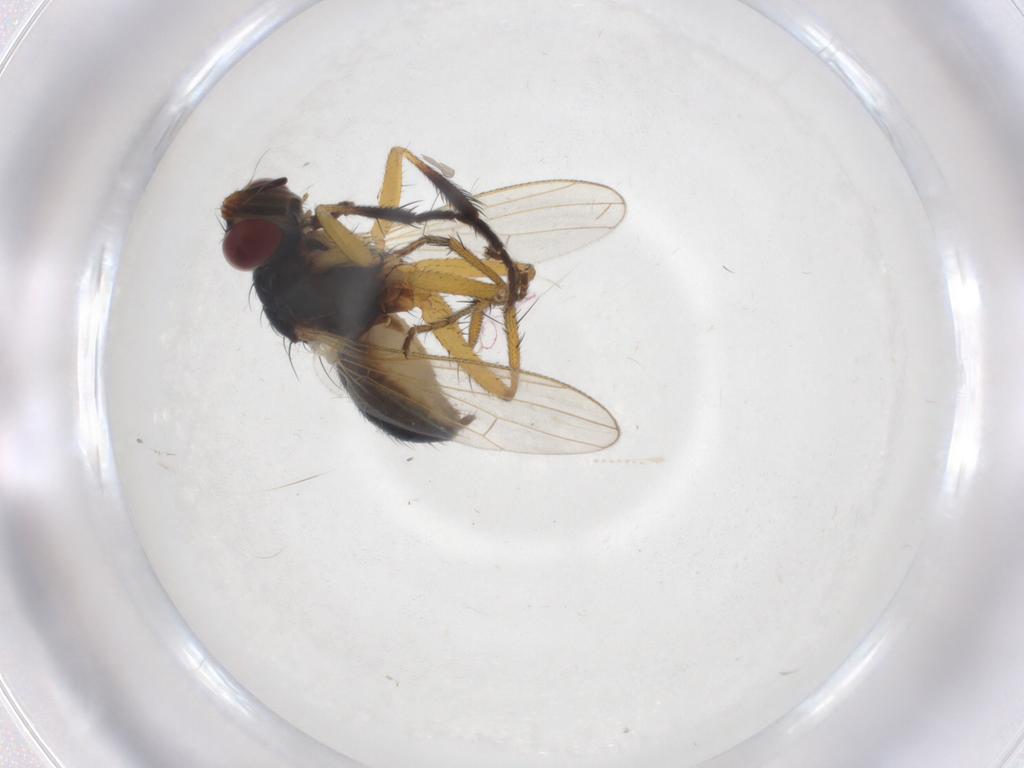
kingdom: Animalia
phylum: Arthropoda
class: Insecta
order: Diptera
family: Muscidae
